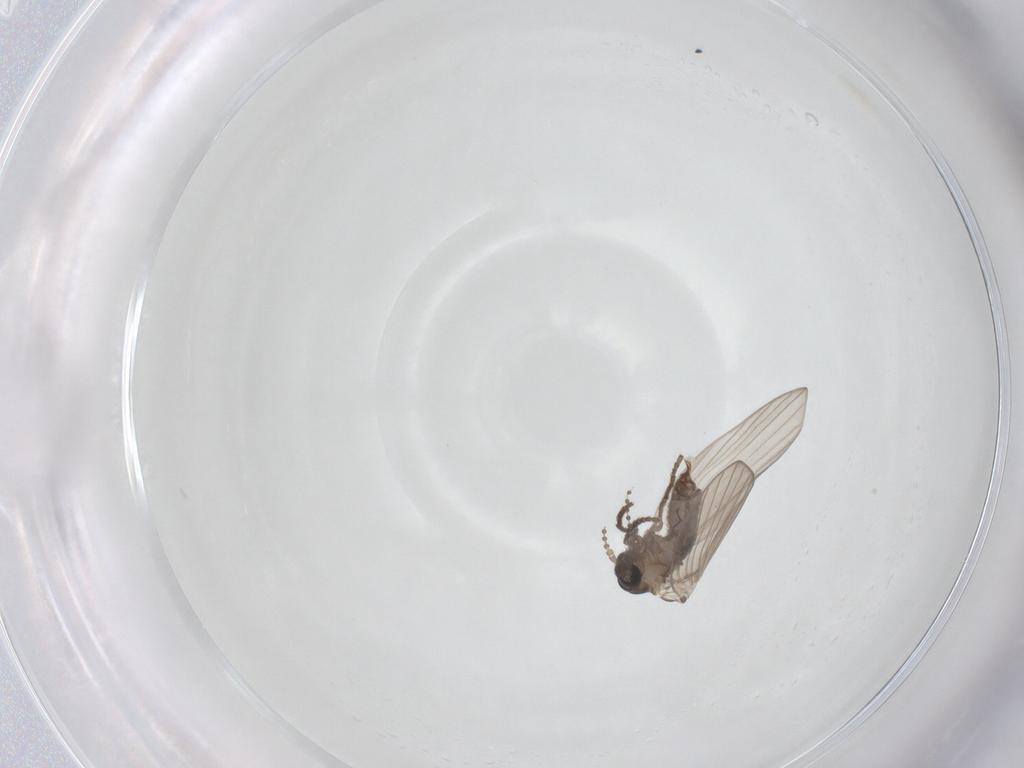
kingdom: Animalia
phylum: Arthropoda
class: Insecta
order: Diptera
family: Psychodidae
